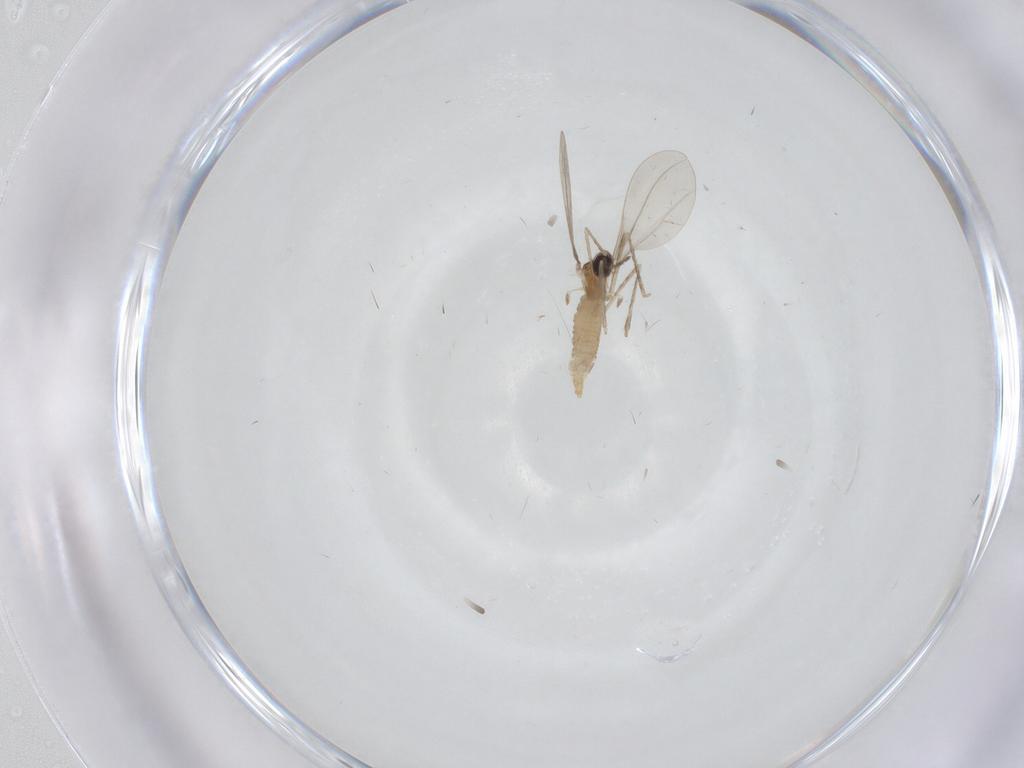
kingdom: Animalia
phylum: Arthropoda
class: Insecta
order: Diptera
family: Cecidomyiidae
